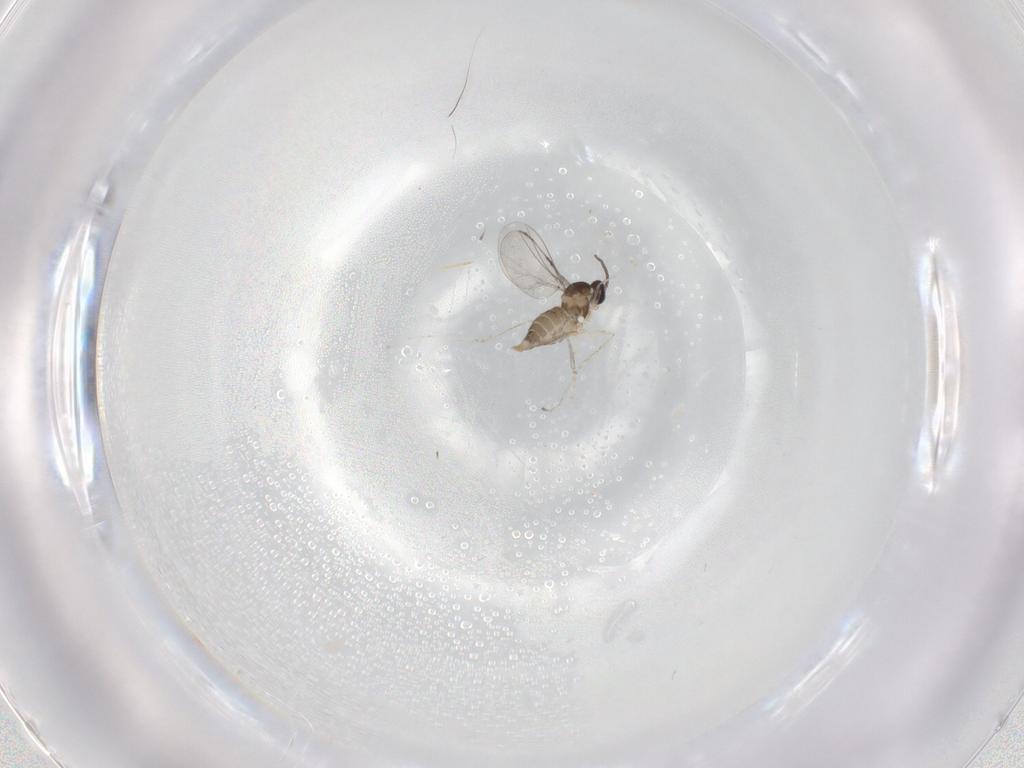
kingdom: Animalia
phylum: Arthropoda
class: Insecta
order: Diptera
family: Cecidomyiidae
